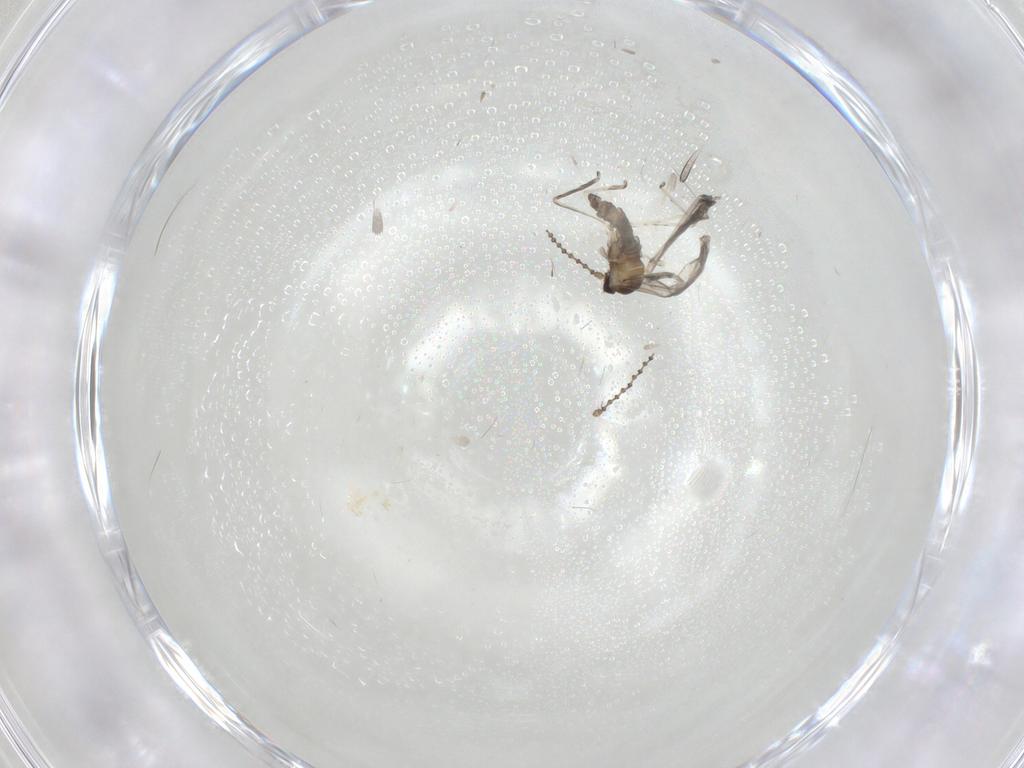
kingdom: Animalia
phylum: Arthropoda
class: Insecta
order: Diptera
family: Cecidomyiidae
